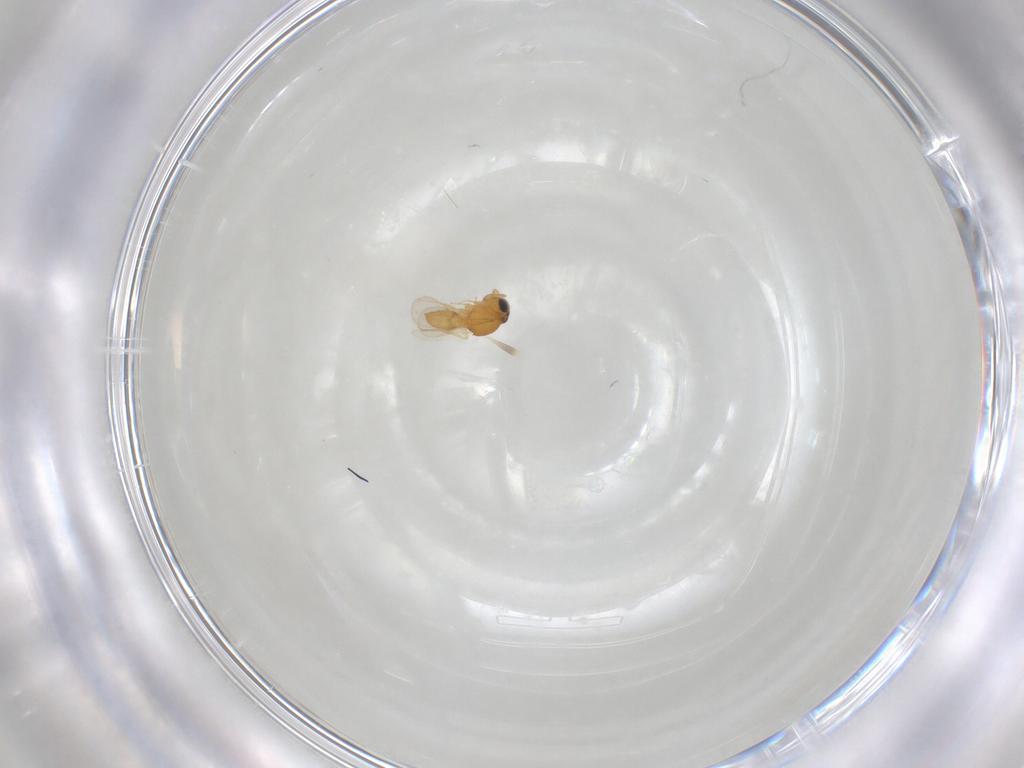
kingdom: Animalia
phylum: Arthropoda
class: Insecta
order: Hymenoptera
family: Scelionidae
